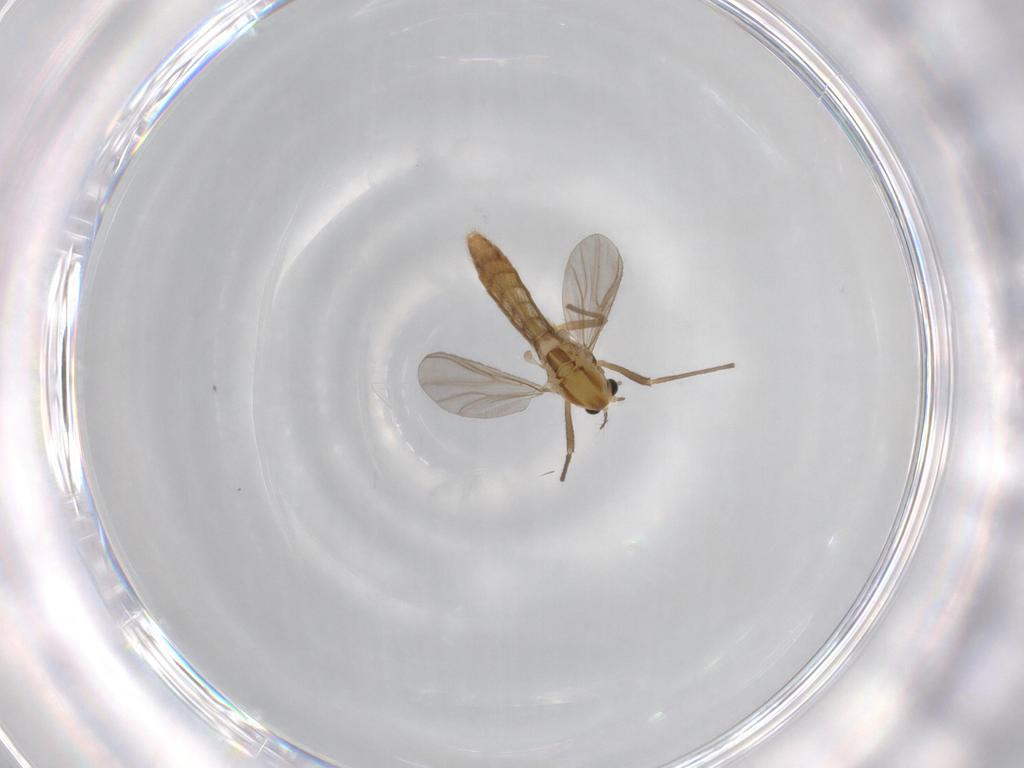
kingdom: Animalia
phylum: Arthropoda
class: Insecta
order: Diptera
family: Chironomidae
